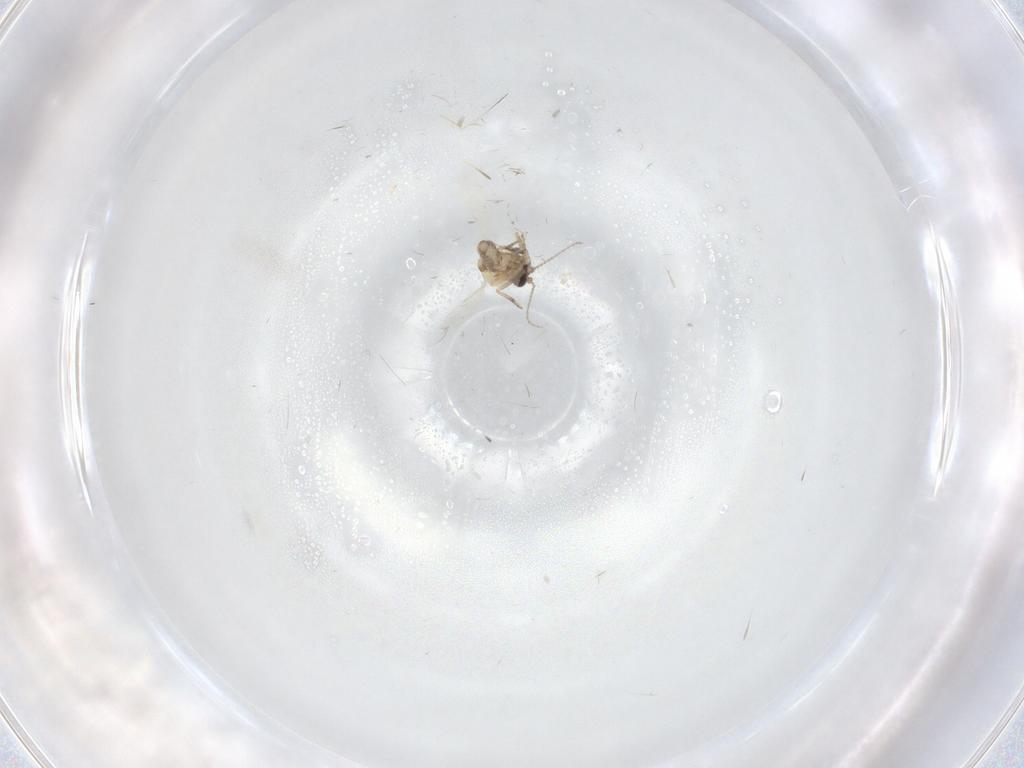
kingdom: Animalia
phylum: Arthropoda
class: Insecta
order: Diptera
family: Ceratopogonidae
